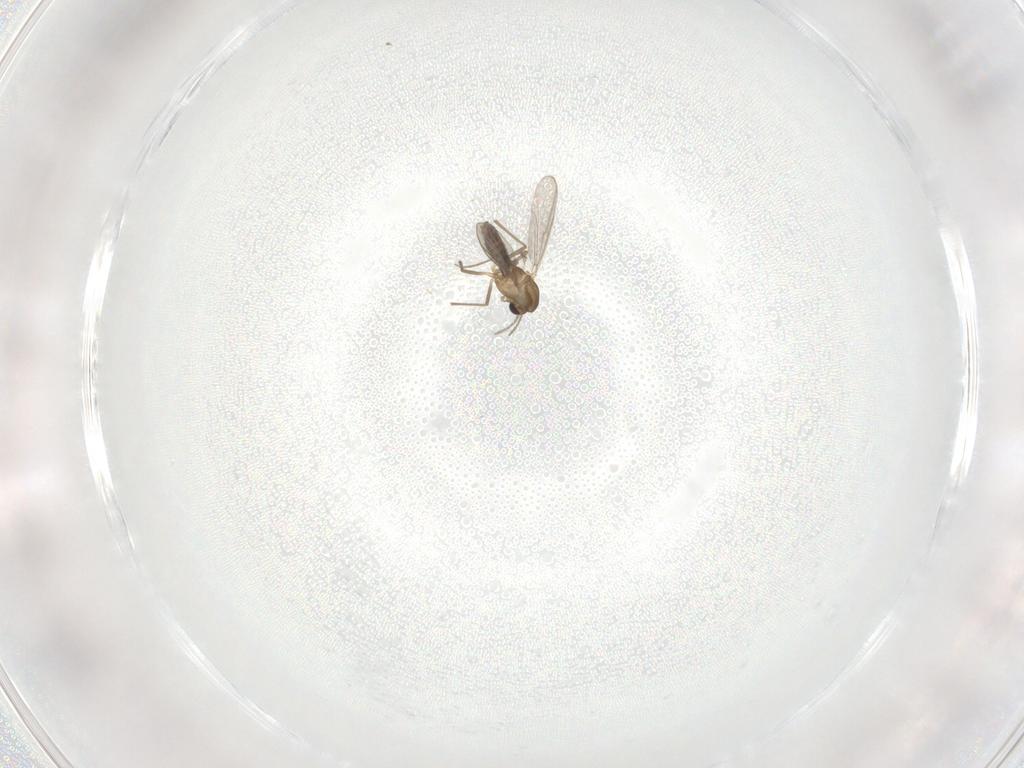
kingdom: Animalia
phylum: Arthropoda
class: Insecta
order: Diptera
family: Chironomidae
